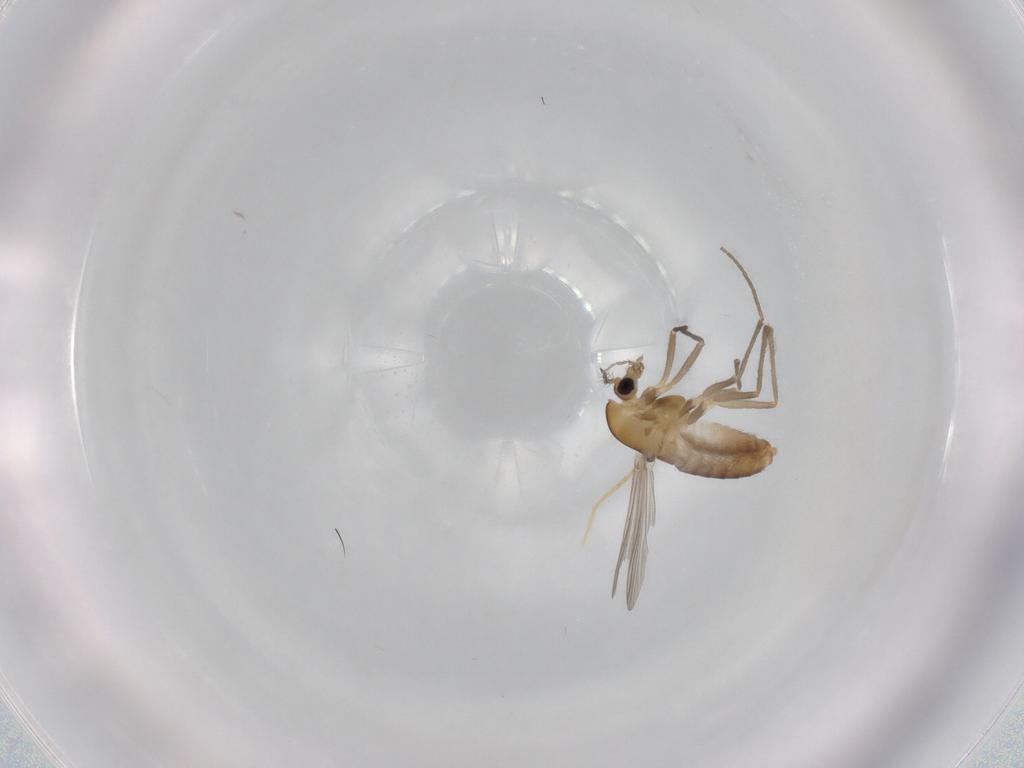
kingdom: Animalia
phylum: Arthropoda
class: Insecta
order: Diptera
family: Chironomidae
